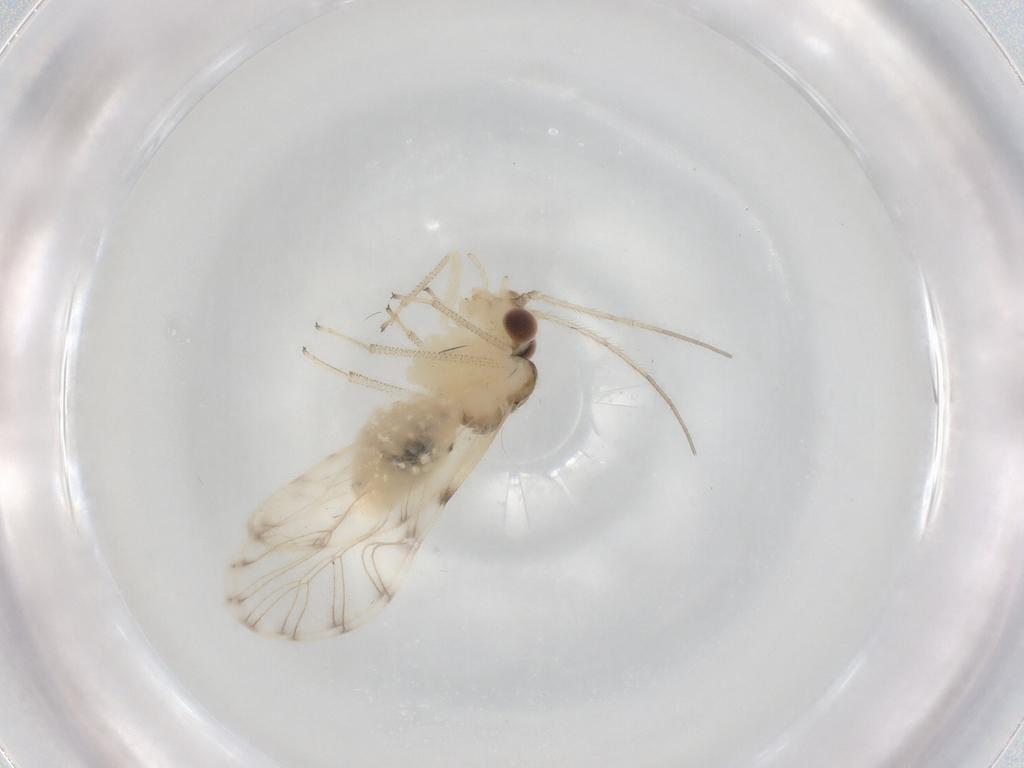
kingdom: Animalia
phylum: Arthropoda
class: Insecta
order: Psocodea
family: Philotarsidae
